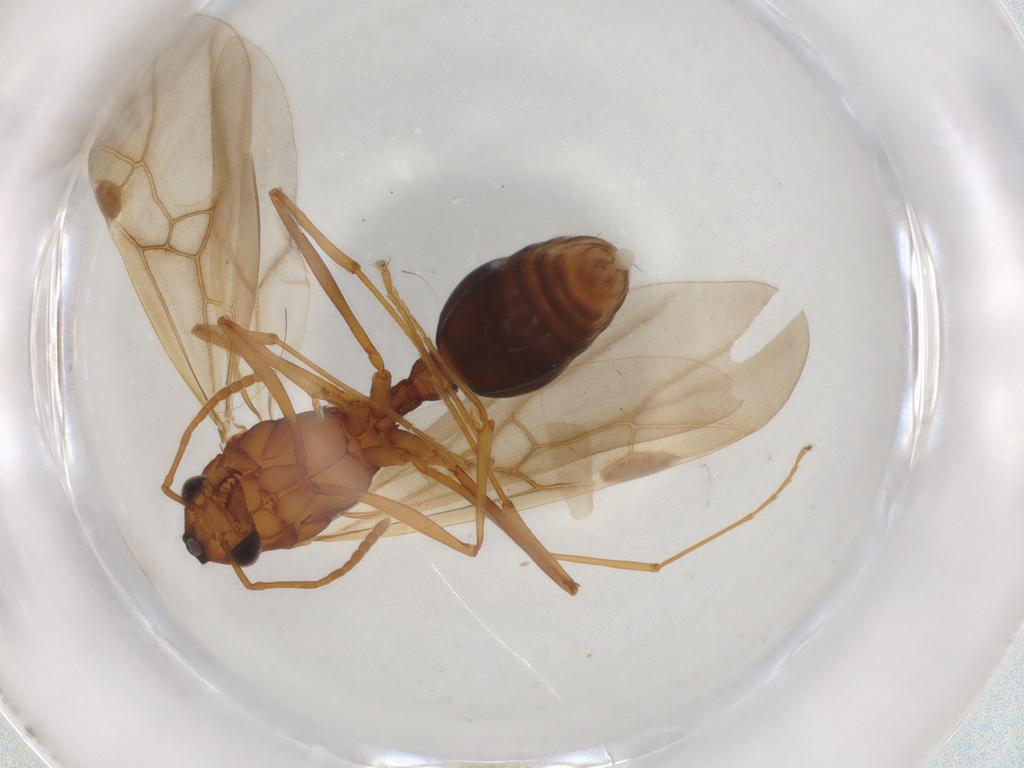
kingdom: Animalia
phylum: Arthropoda
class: Insecta
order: Hymenoptera
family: Formicidae
